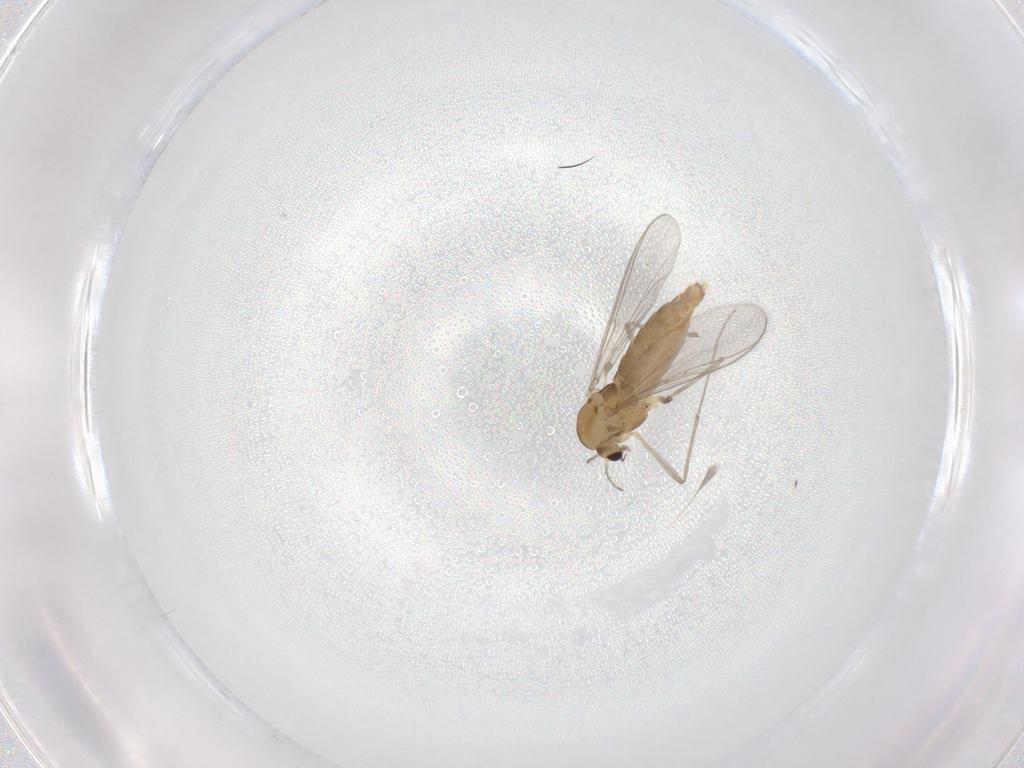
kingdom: Animalia
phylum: Arthropoda
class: Insecta
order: Diptera
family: Chironomidae
